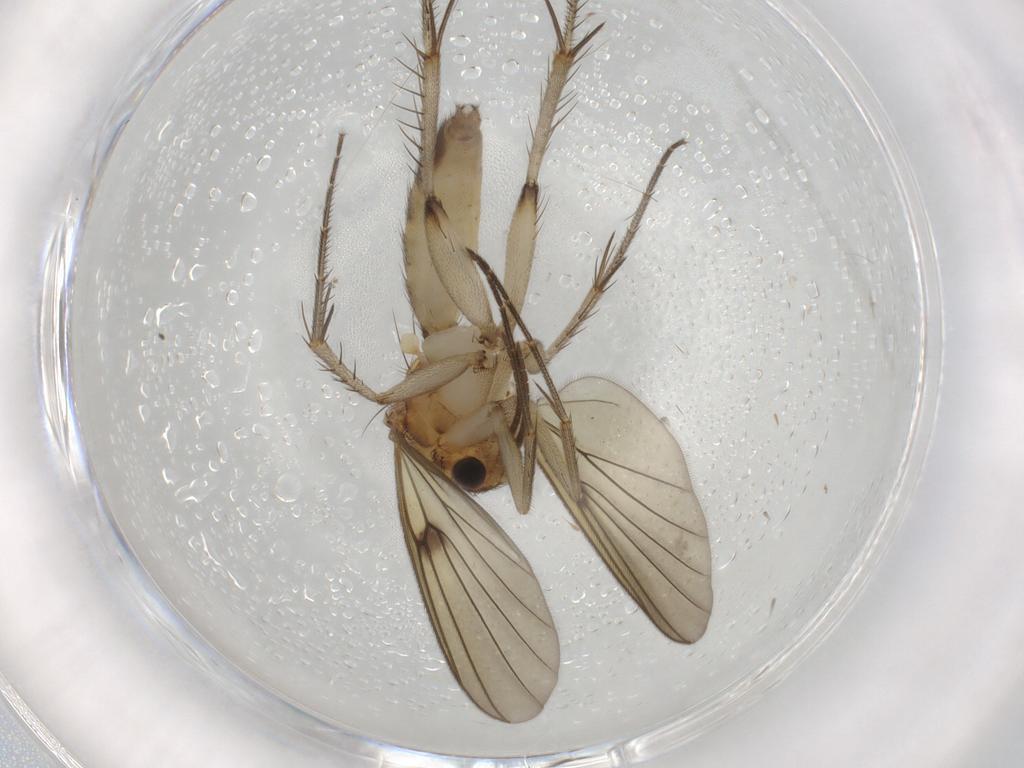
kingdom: Animalia
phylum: Arthropoda
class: Insecta
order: Diptera
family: Mycetophilidae
